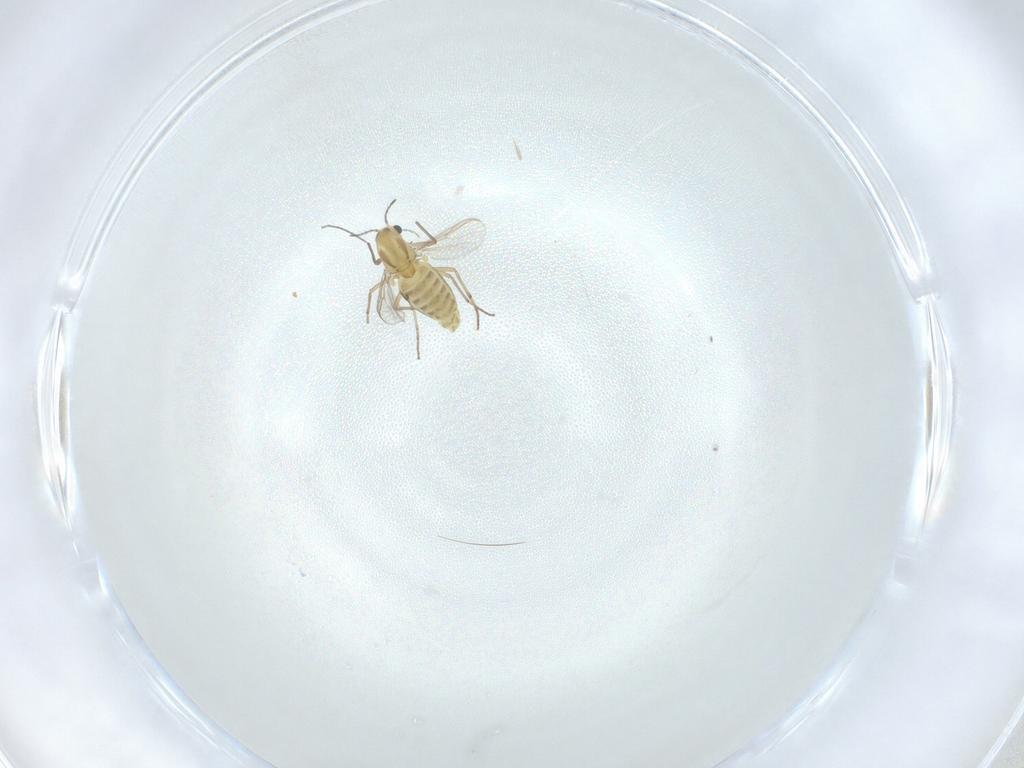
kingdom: Animalia
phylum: Arthropoda
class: Insecta
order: Diptera
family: Chironomidae
